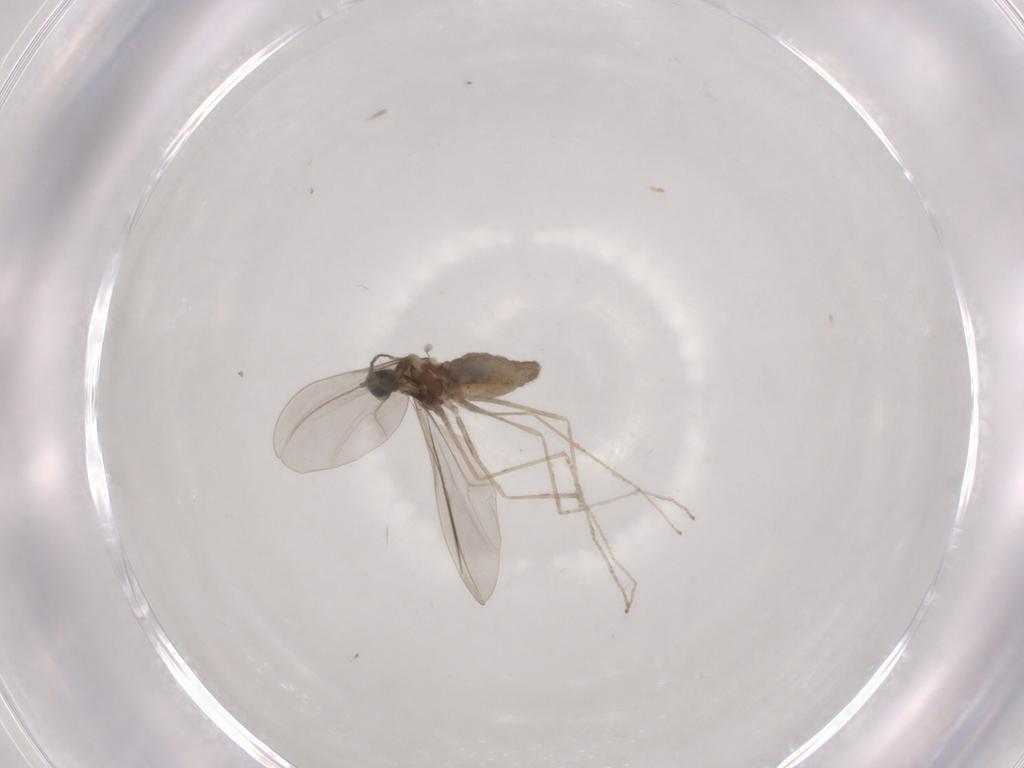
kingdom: Animalia
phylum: Arthropoda
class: Insecta
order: Diptera
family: Cecidomyiidae
